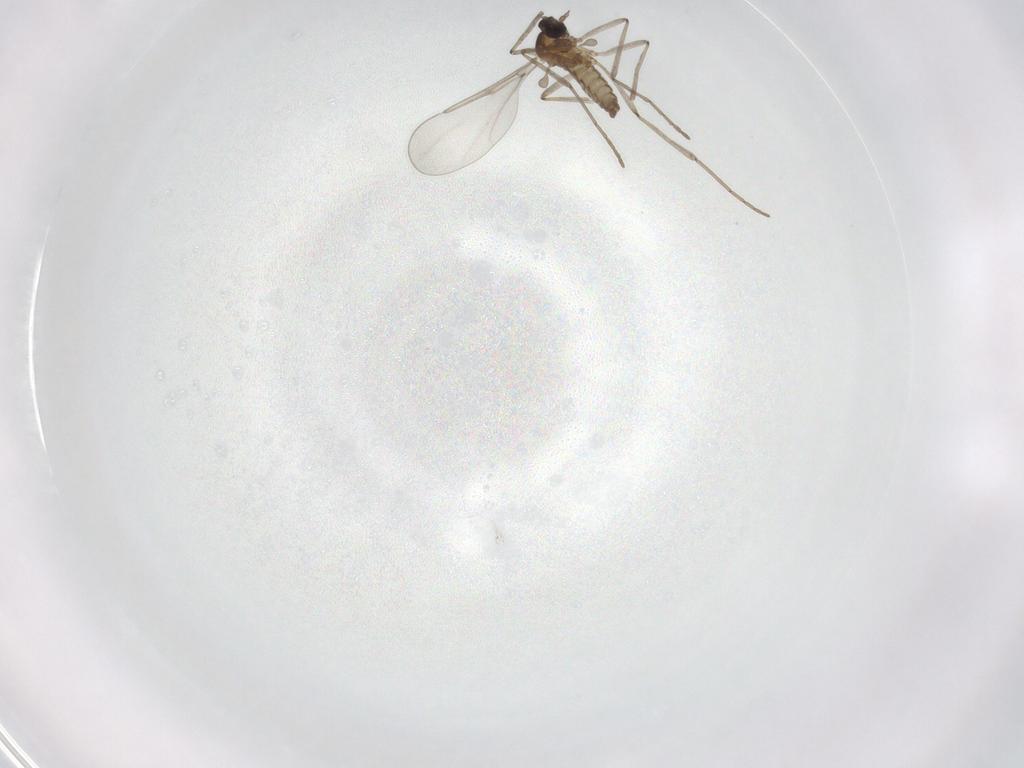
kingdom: Animalia
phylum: Arthropoda
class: Insecta
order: Diptera
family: Cecidomyiidae
